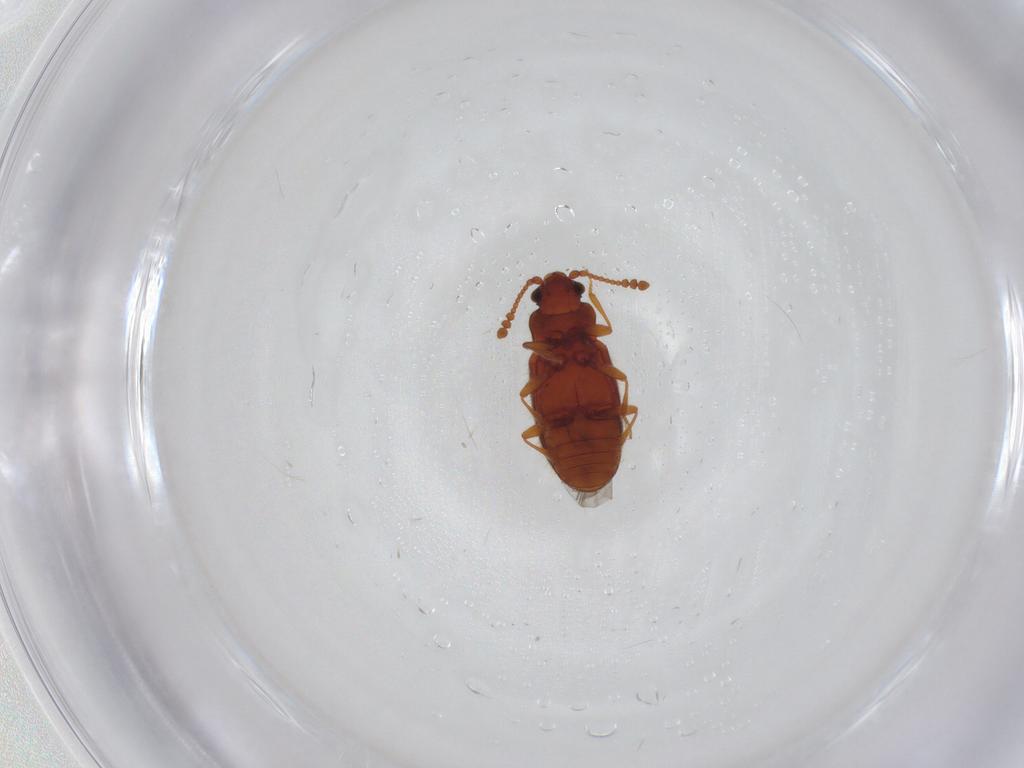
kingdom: Animalia
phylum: Arthropoda
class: Insecta
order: Coleoptera
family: Cryptophagidae
